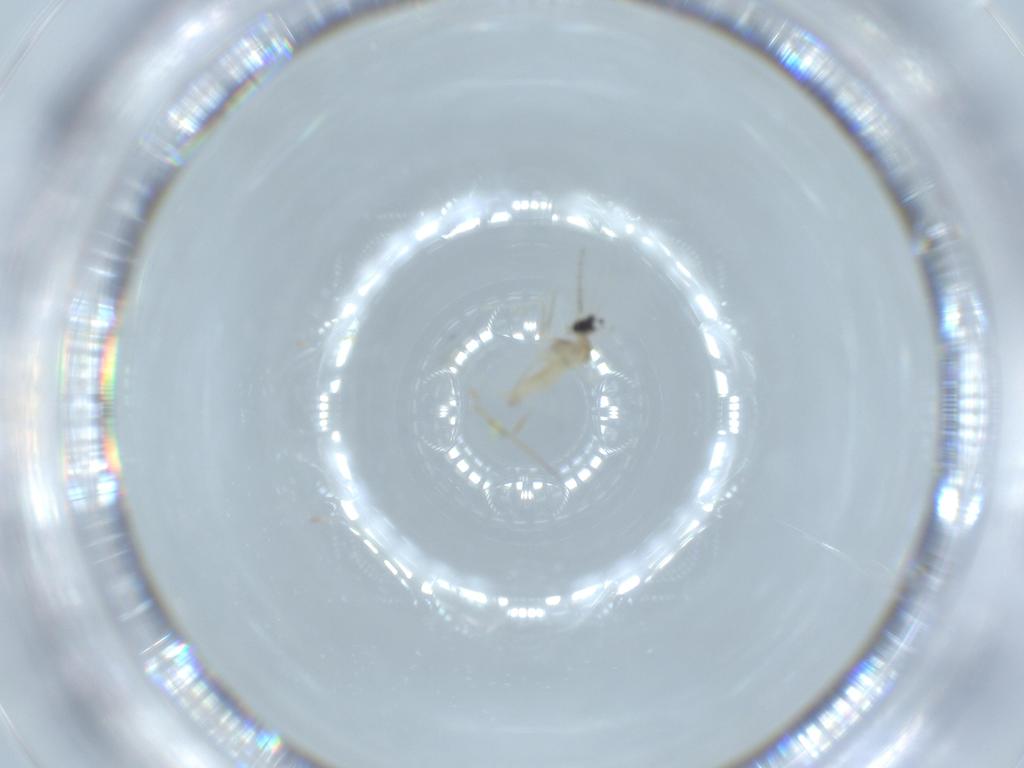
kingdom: Animalia
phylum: Arthropoda
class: Insecta
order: Diptera
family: Cecidomyiidae
